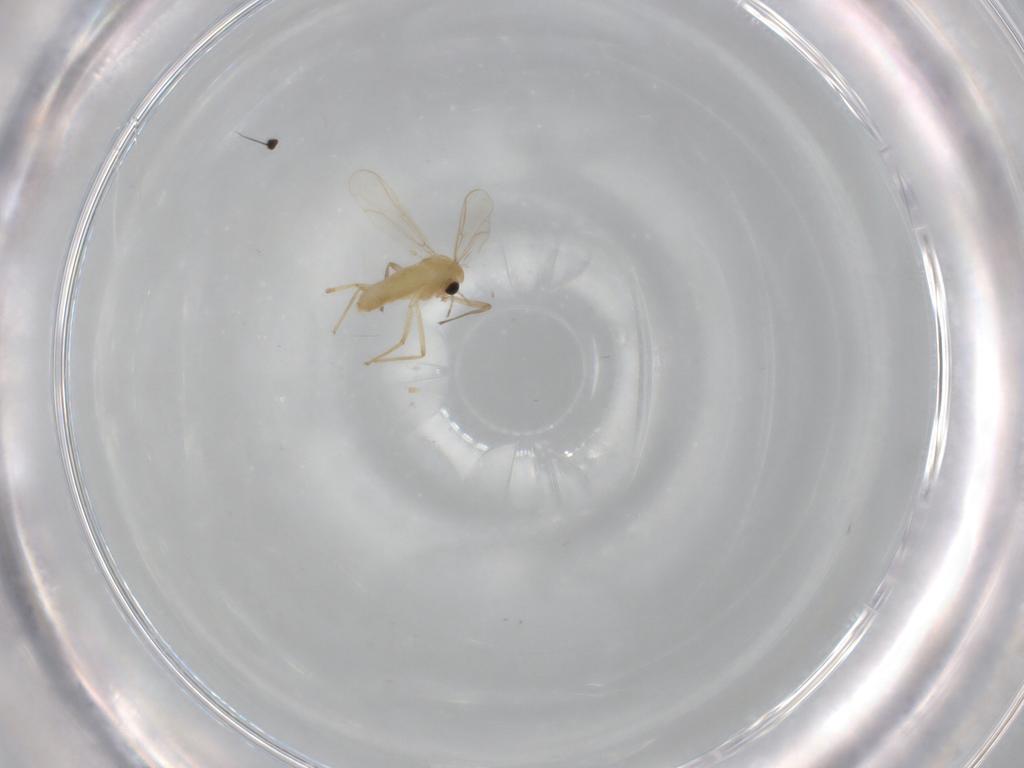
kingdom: Animalia
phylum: Arthropoda
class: Insecta
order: Diptera
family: Chironomidae
